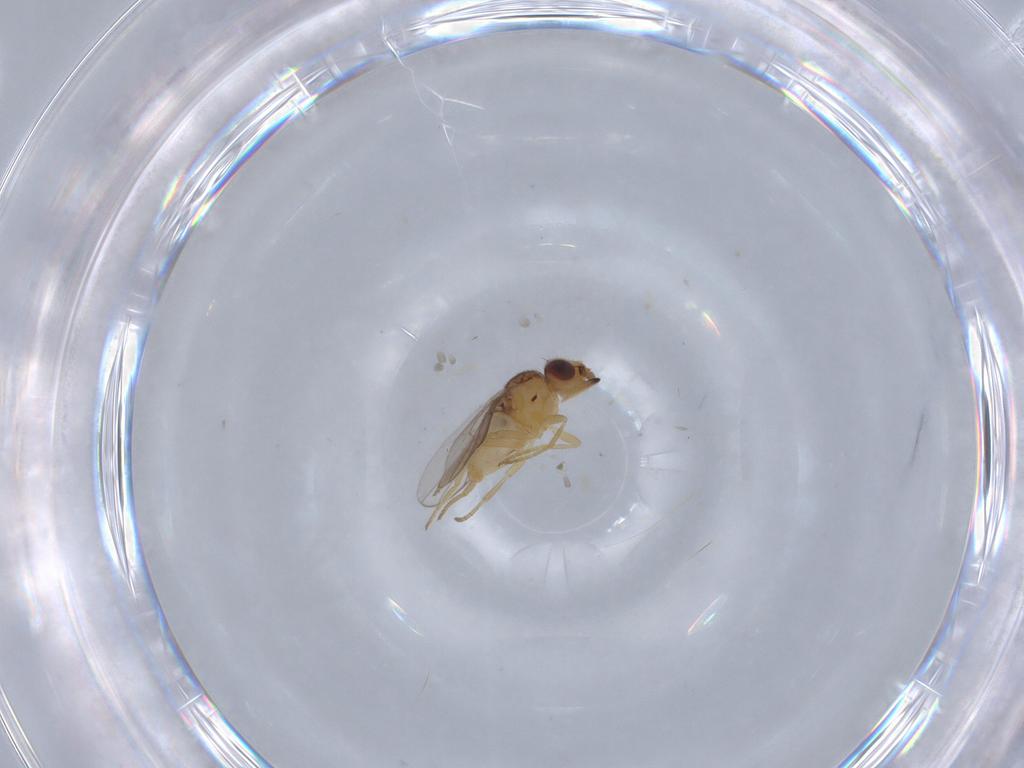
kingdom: Animalia
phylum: Arthropoda
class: Insecta
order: Diptera
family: Chloropidae
